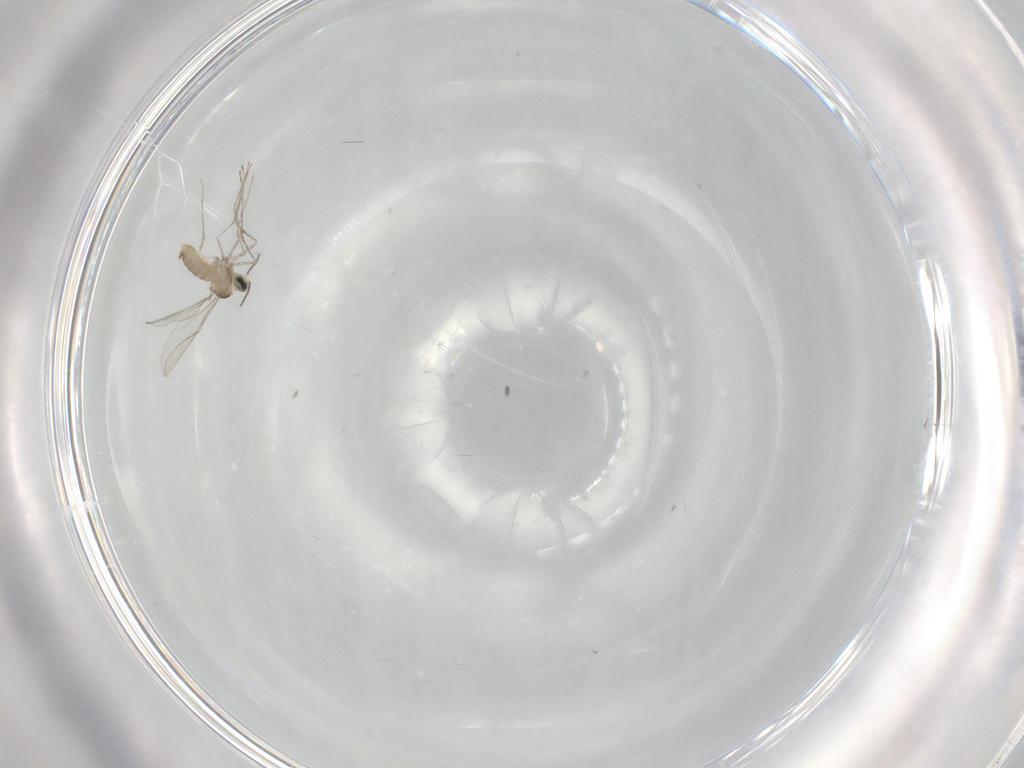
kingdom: Animalia
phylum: Arthropoda
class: Insecta
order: Diptera
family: Cecidomyiidae
